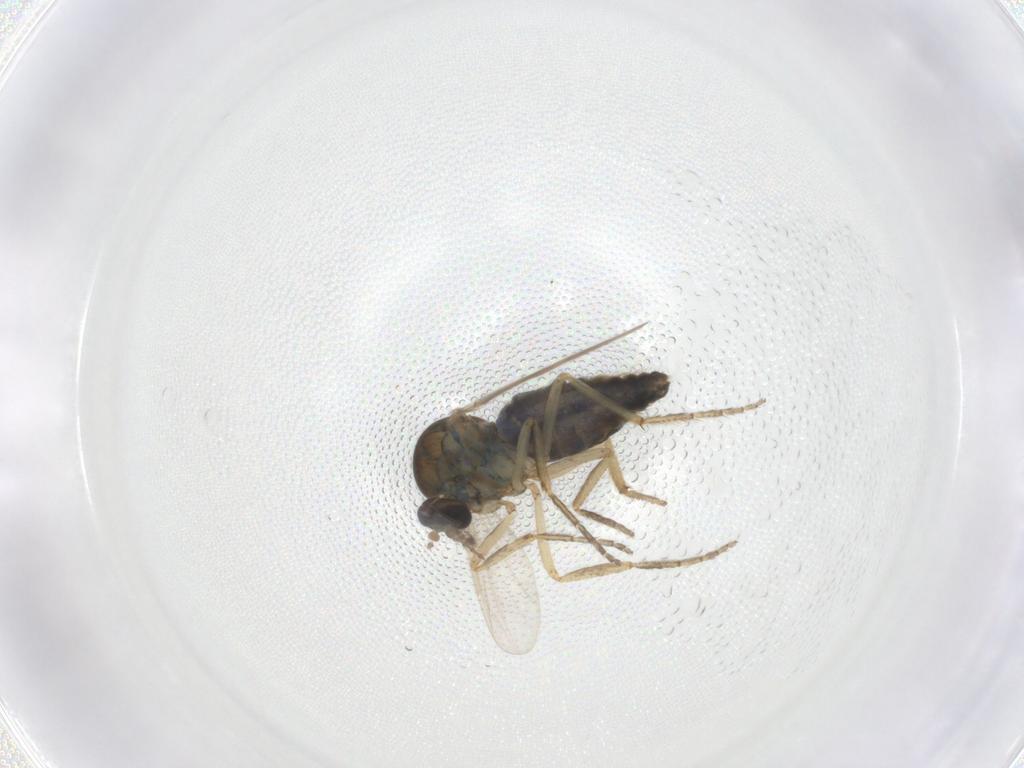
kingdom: Animalia
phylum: Arthropoda
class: Insecta
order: Diptera
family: Ceratopogonidae
